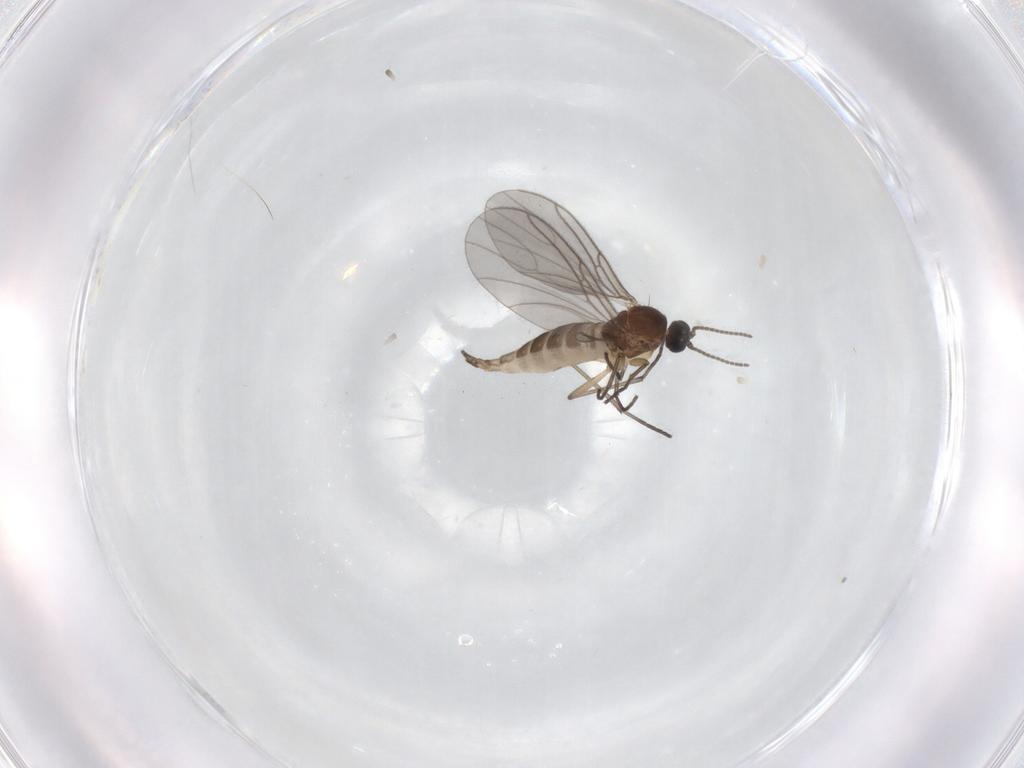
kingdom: Animalia
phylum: Arthropoda
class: Insecta
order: Diptera
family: Sciaridae
